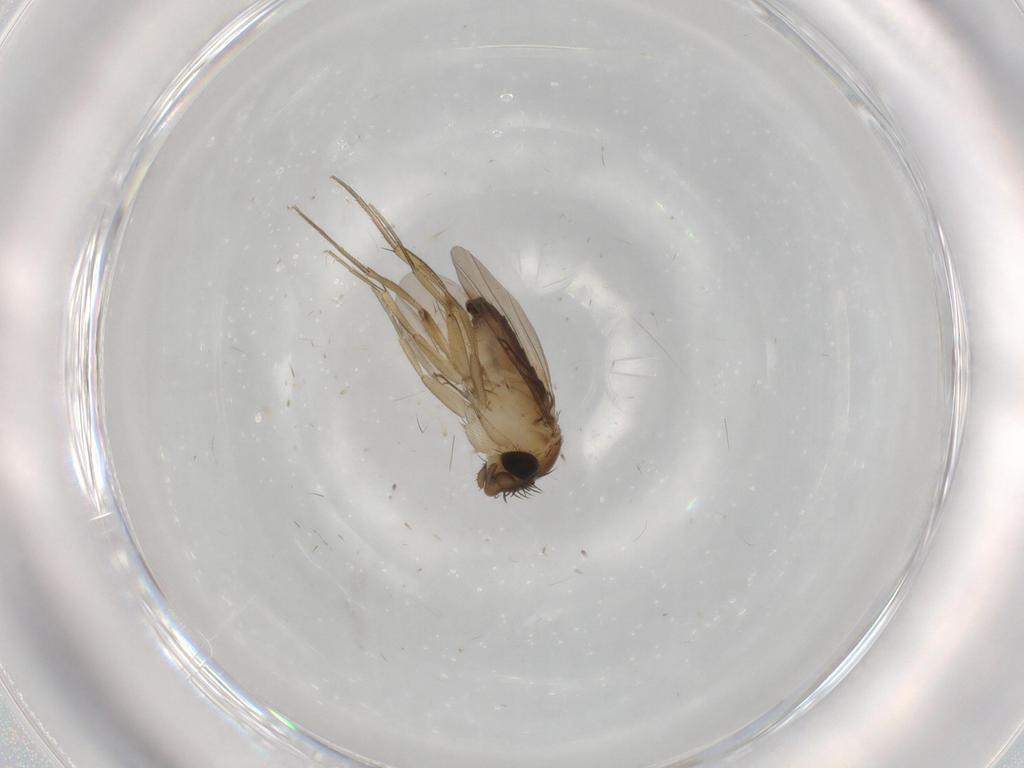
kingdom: Animalia
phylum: Arthropoda
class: Insecta
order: Diptera
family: Phoridae
